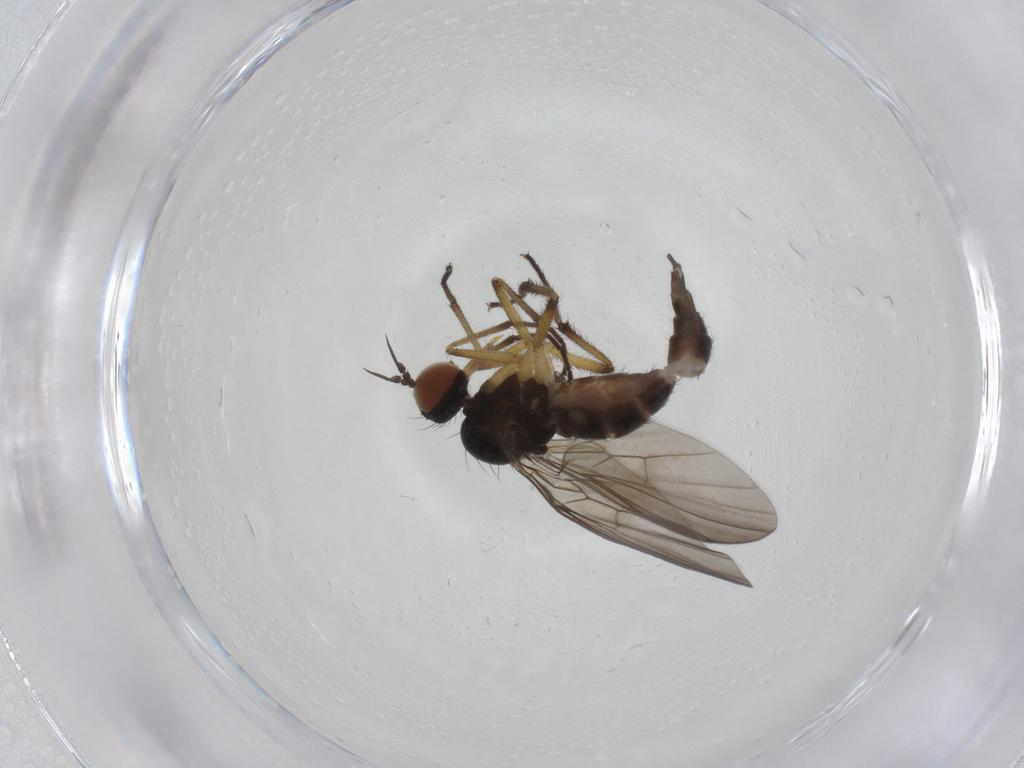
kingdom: Animalia
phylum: Arthropoda
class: Insecta
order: Diptera
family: Empididae
